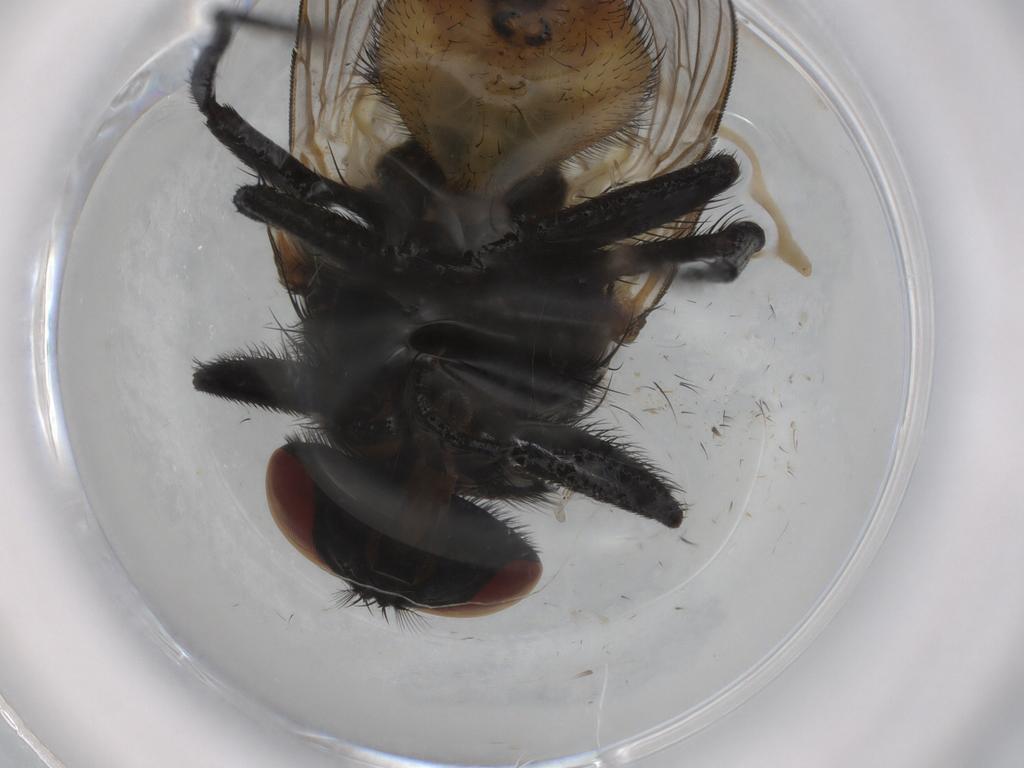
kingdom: Animalia
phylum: Arthropoda
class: Insecta
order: Diptera
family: Muscidae
